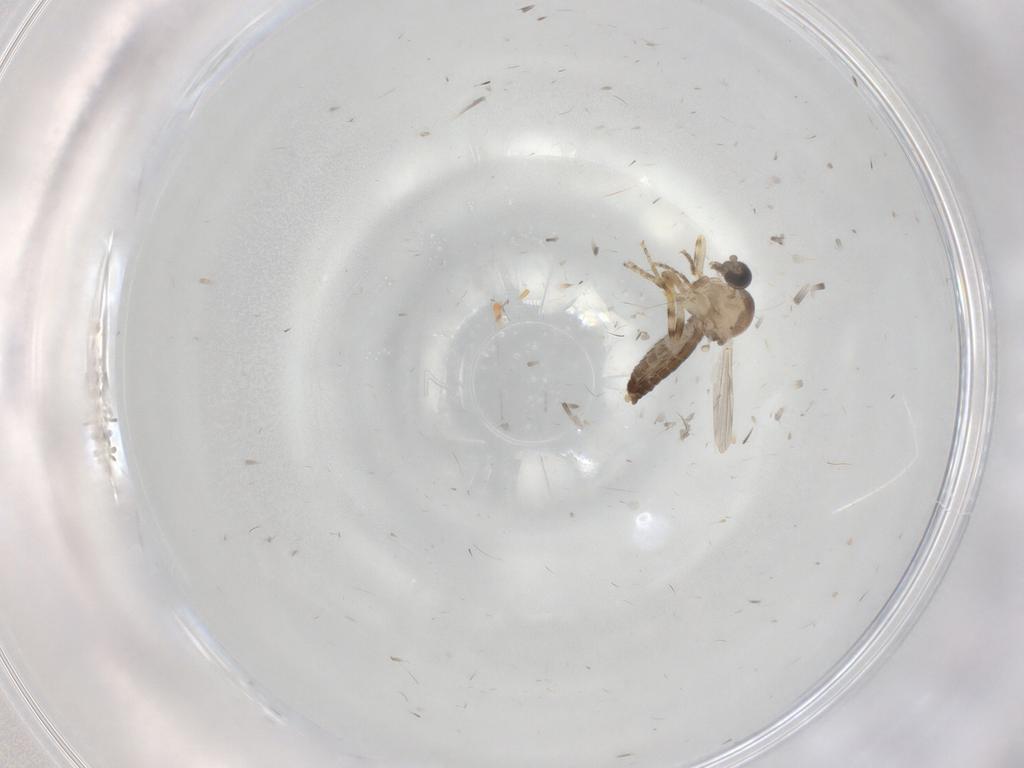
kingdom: Animalia
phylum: Arthropoda
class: Insecta
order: Diptera
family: Ceratopogonidae
